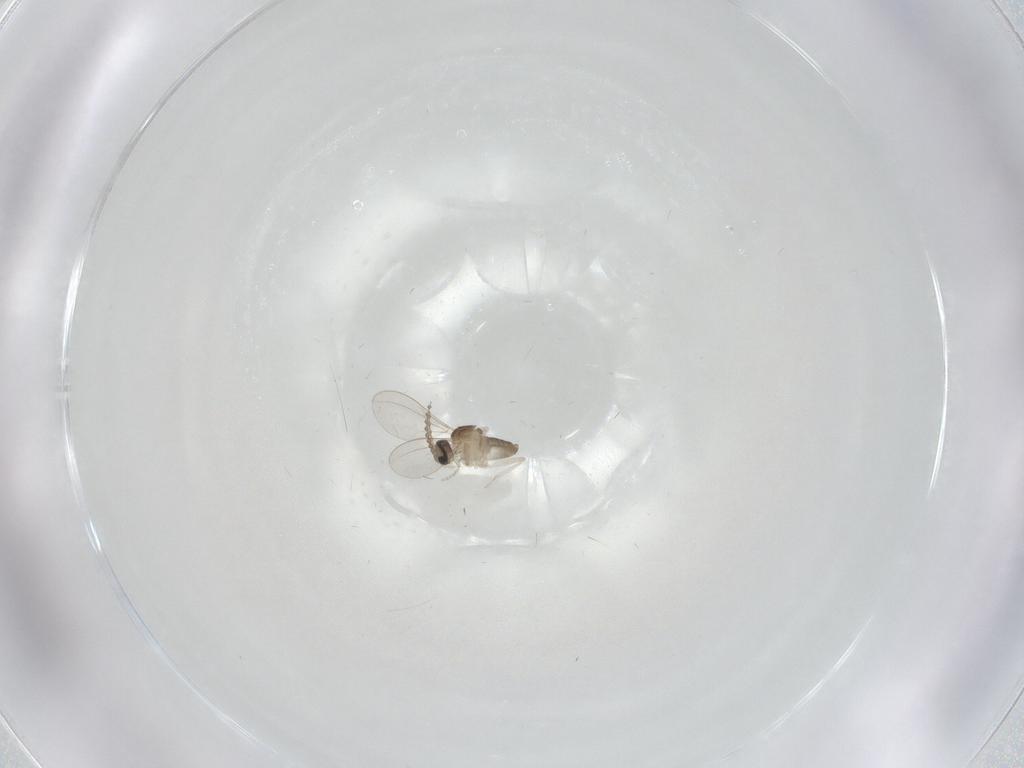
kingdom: Animalia
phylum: Arthropoda
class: Insecta
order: Diptera
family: Cecidomyiidae
